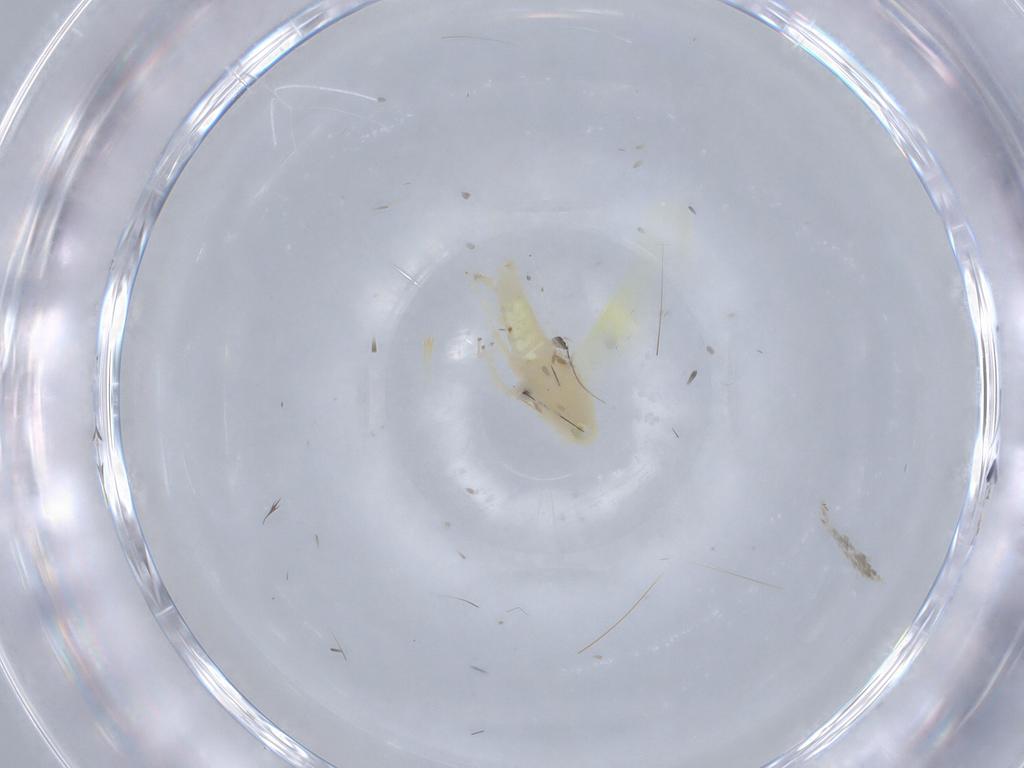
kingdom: Animalia
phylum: Arthropoda
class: Insecta
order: Hemiptera
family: Cicadellidae
